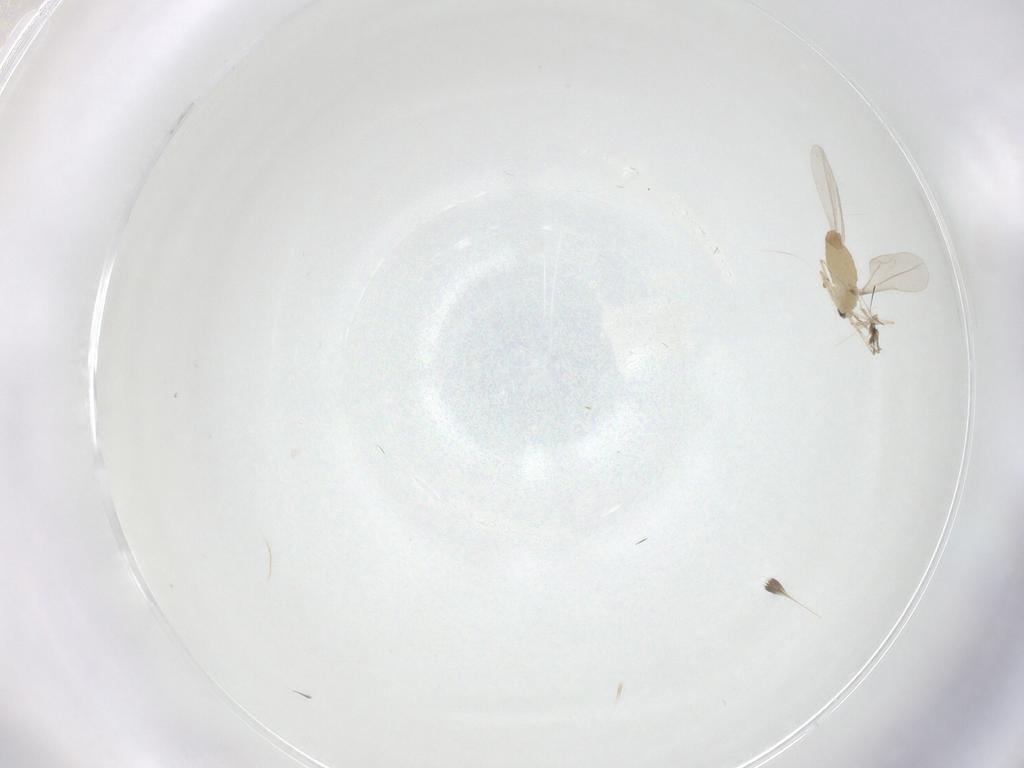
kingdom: Animalia
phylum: Arthropoda
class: Insecta
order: Diptera
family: Cecidomyiidae
